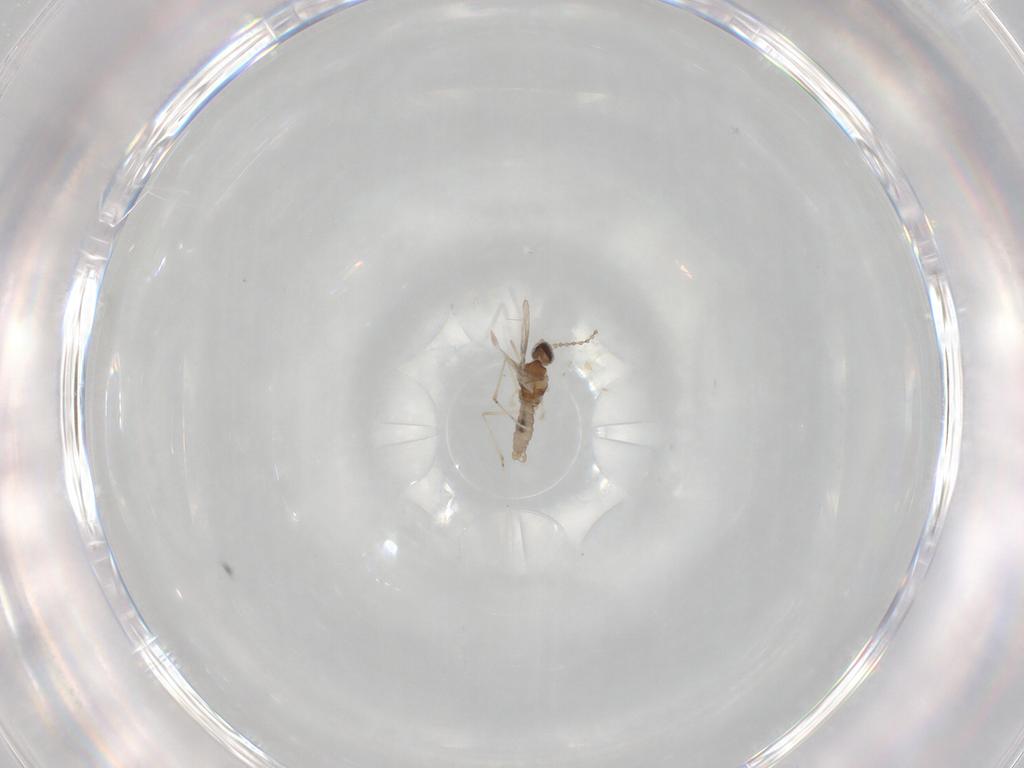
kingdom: Animalia
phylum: Arthropoda
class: Insecta
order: Diptera
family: Cecidomyiidae
